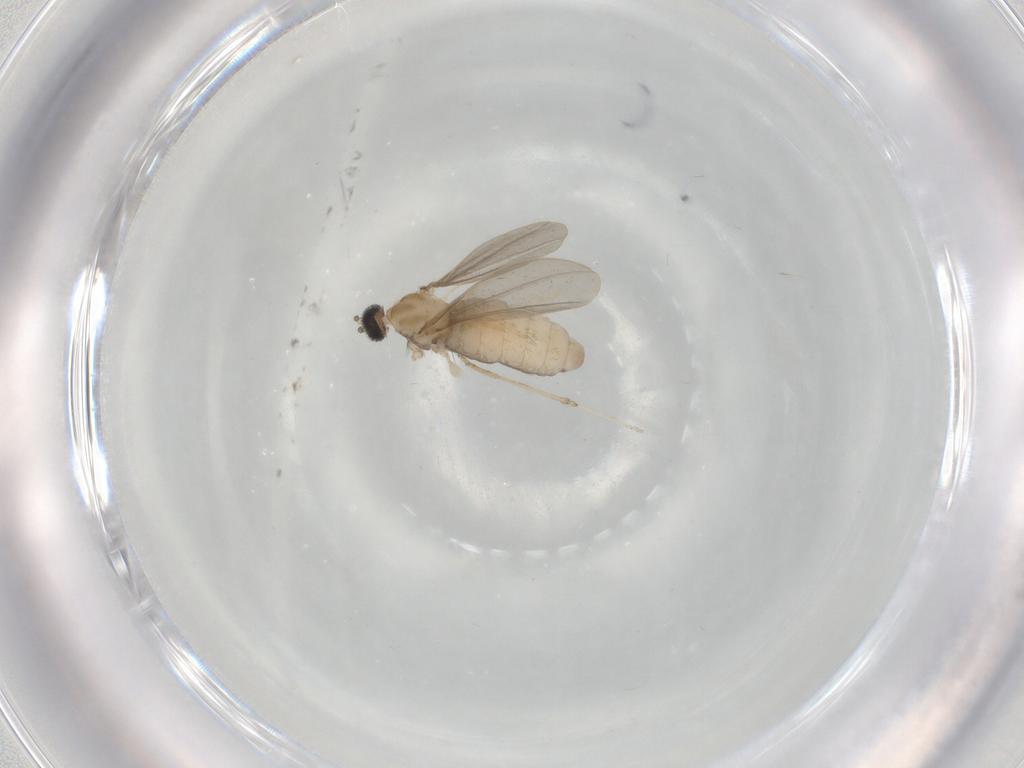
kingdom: Animalia
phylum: Arthropoda
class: Insecta
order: Diptera
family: Cecidomyiidae
